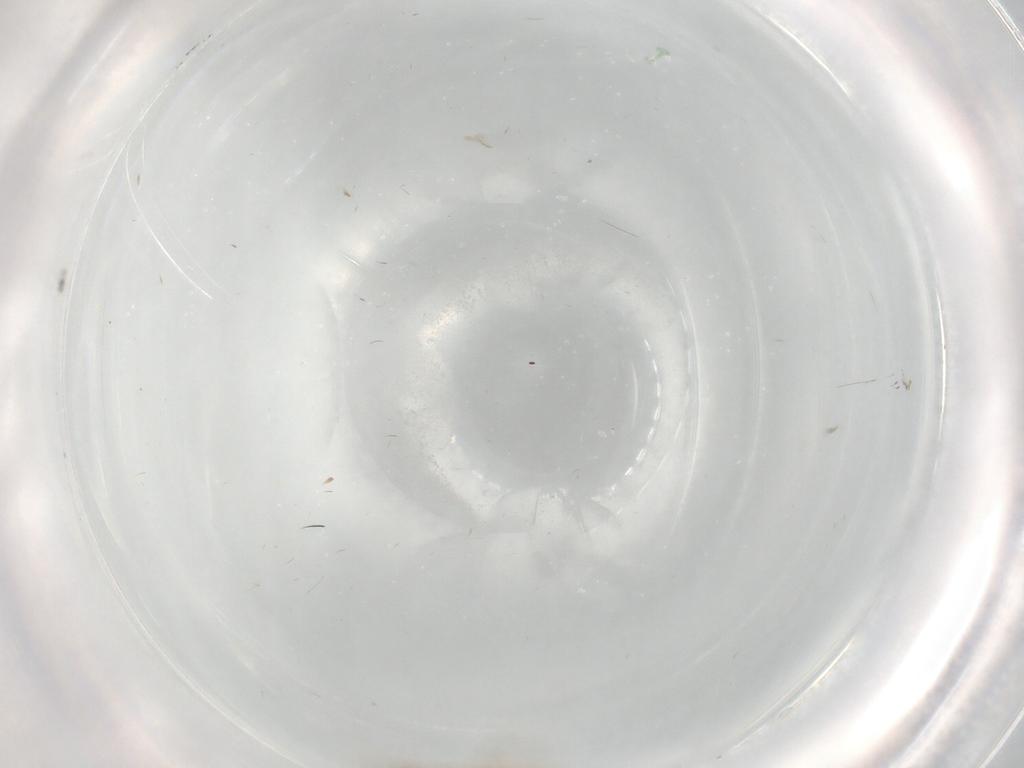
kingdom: Animalia
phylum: Arthropoda
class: Insecta
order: Diptera
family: Cecidomyiidae
